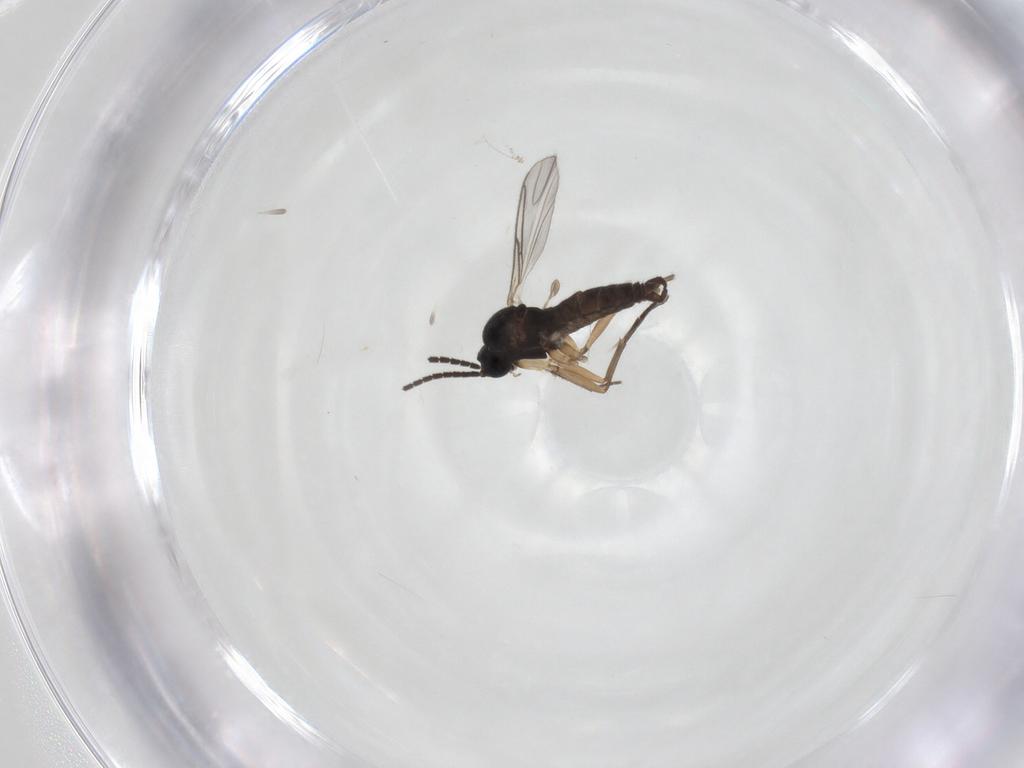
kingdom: Animalia
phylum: Arthropoda
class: Insecta
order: Diptera
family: Sciaridae
